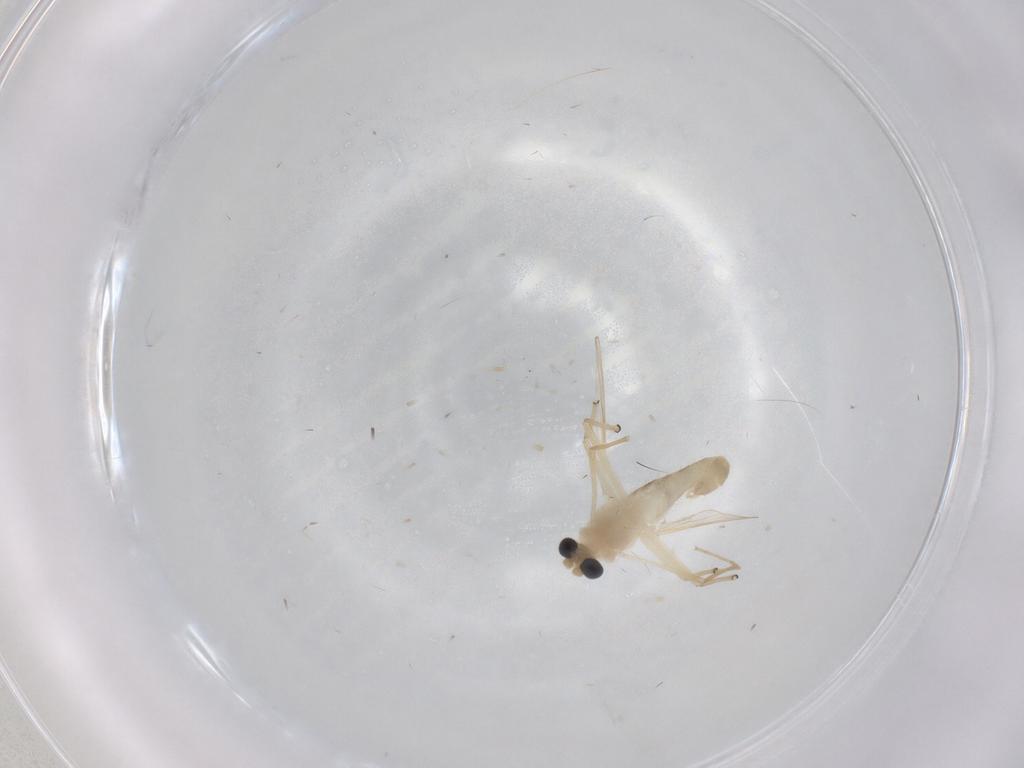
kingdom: Animalia
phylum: Arthropoda
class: Insecta
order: Diptera
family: Chironomidae
